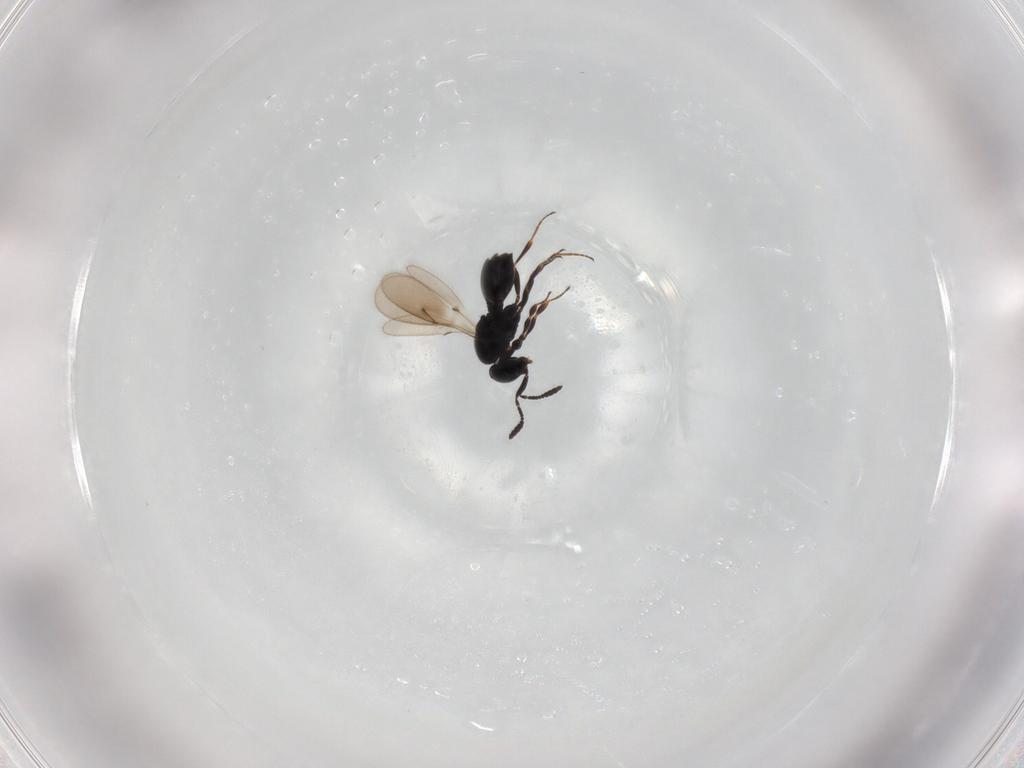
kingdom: Animalia
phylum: Arthropoda
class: Insecta
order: Hymenoptera
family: Scelionidae
